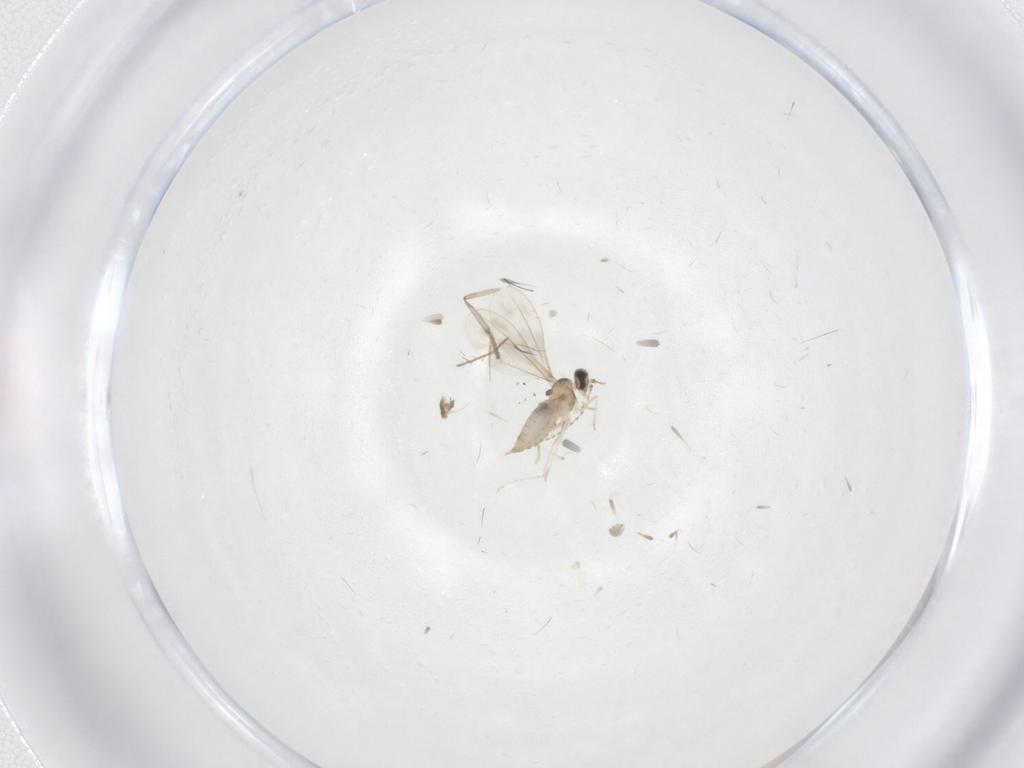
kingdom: Animalia
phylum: Arthropoda
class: Insecta
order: Diptera
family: Cecidomyiidae
